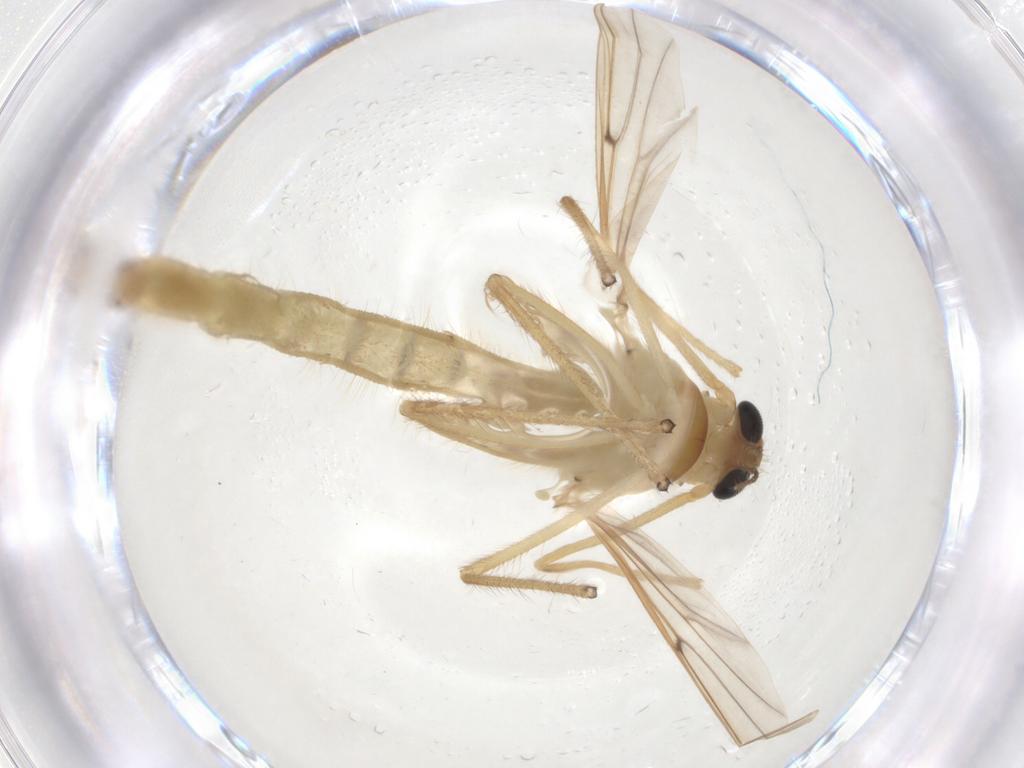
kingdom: Animalia
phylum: Arthropoda
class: Insecta
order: Diptera
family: Chironomidae
